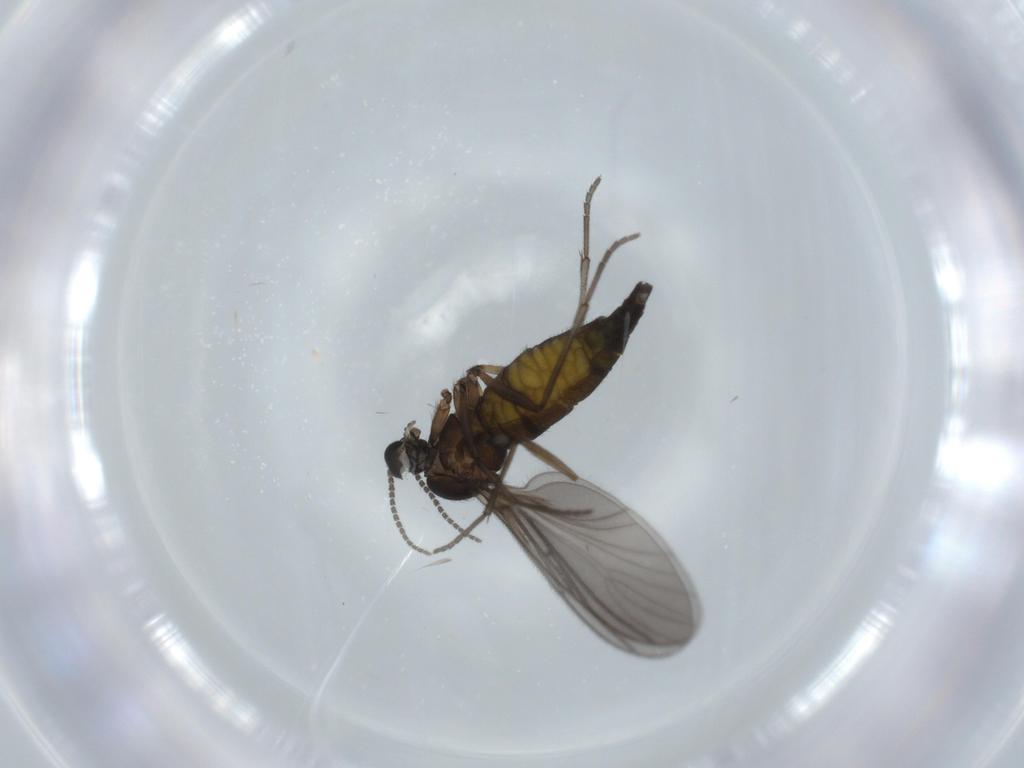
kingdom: Animalia
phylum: Arthropoda
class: Insecta
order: Diptera
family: Sciaridae
